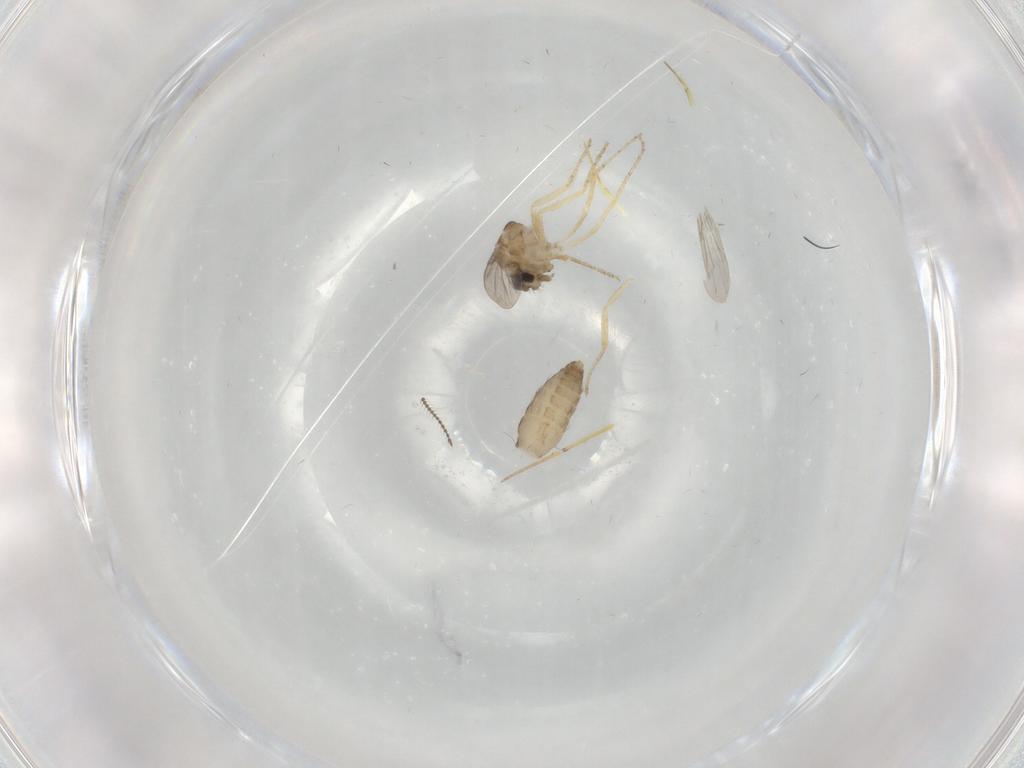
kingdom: Animalia
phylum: Arthropoda
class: Insecta
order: Diptera
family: Ceratopogonidae
